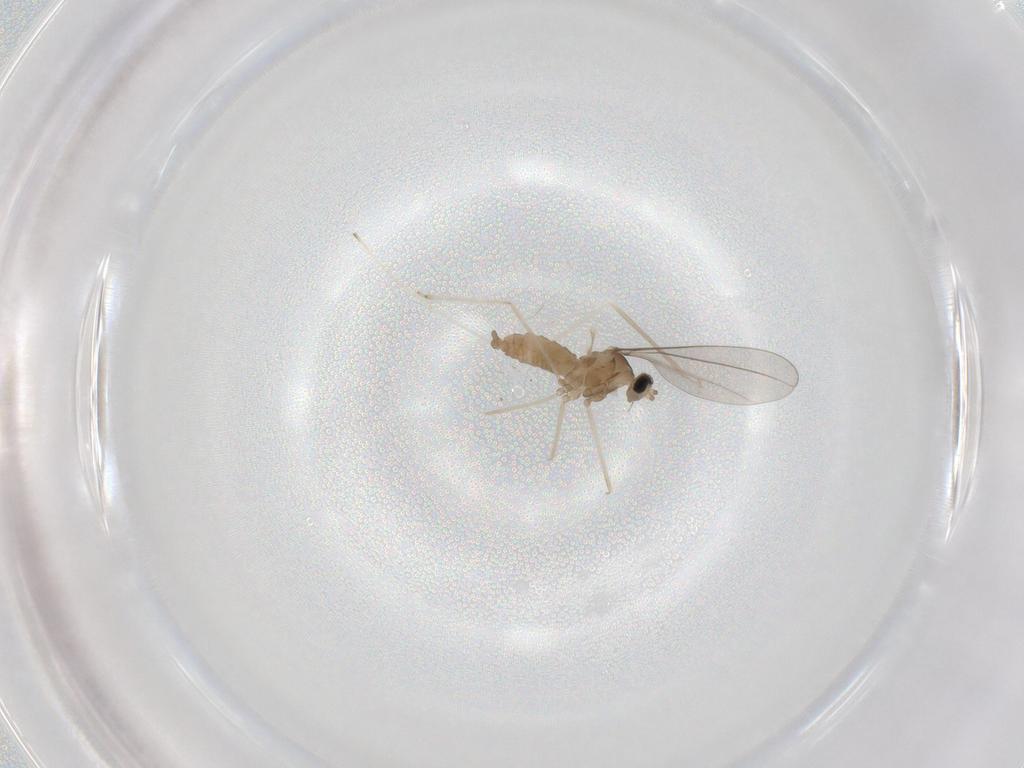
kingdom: Animalia
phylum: Arthropoda
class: Insecta
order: Diptera
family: Cecidomyiidae
